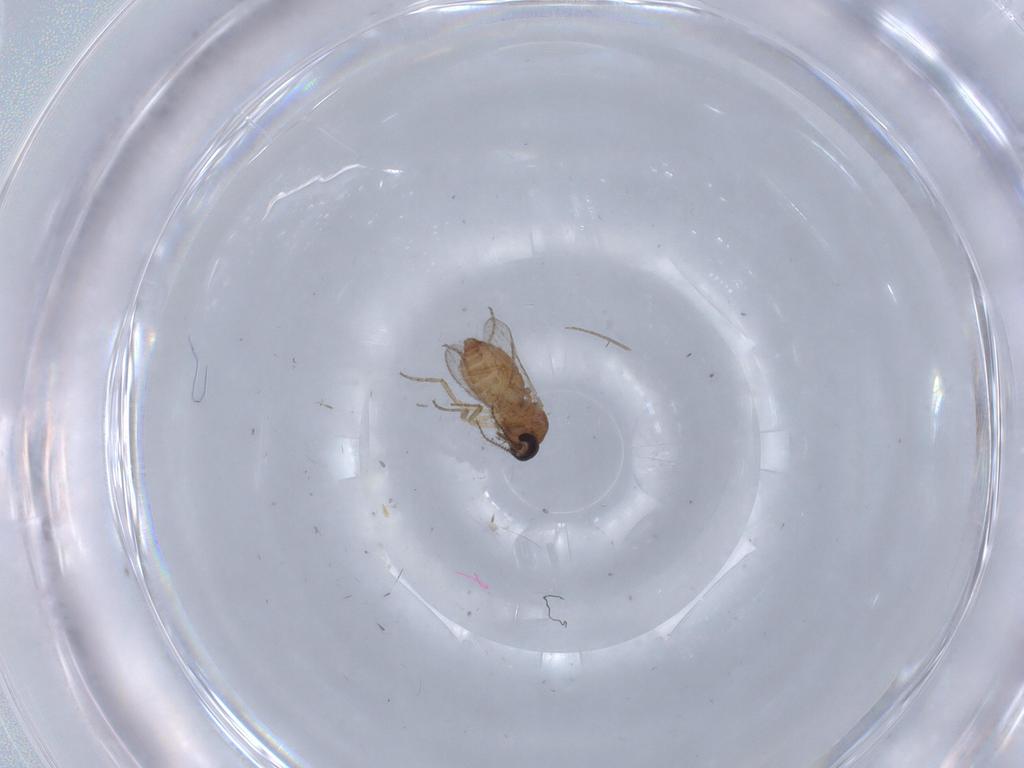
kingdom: Animalia
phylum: Arthropoda
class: Insecta
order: Diptera
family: Ceratopogonidae
